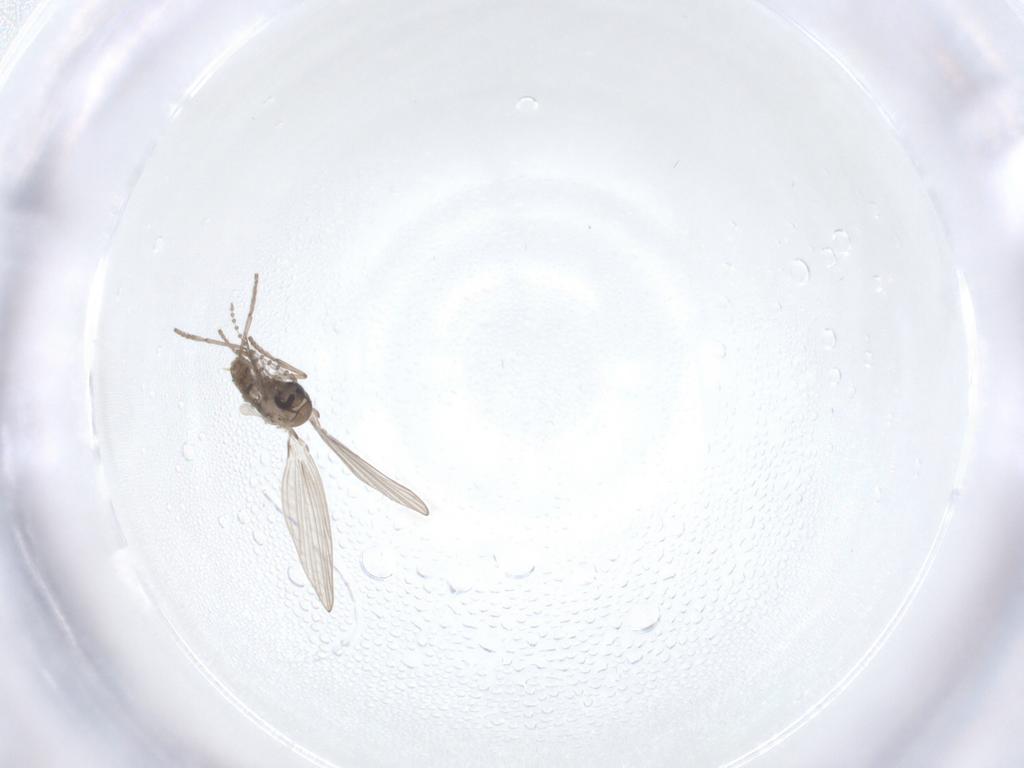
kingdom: Animalia
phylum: Arthropoda
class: Insecta
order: Diptera
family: Psychodidae
